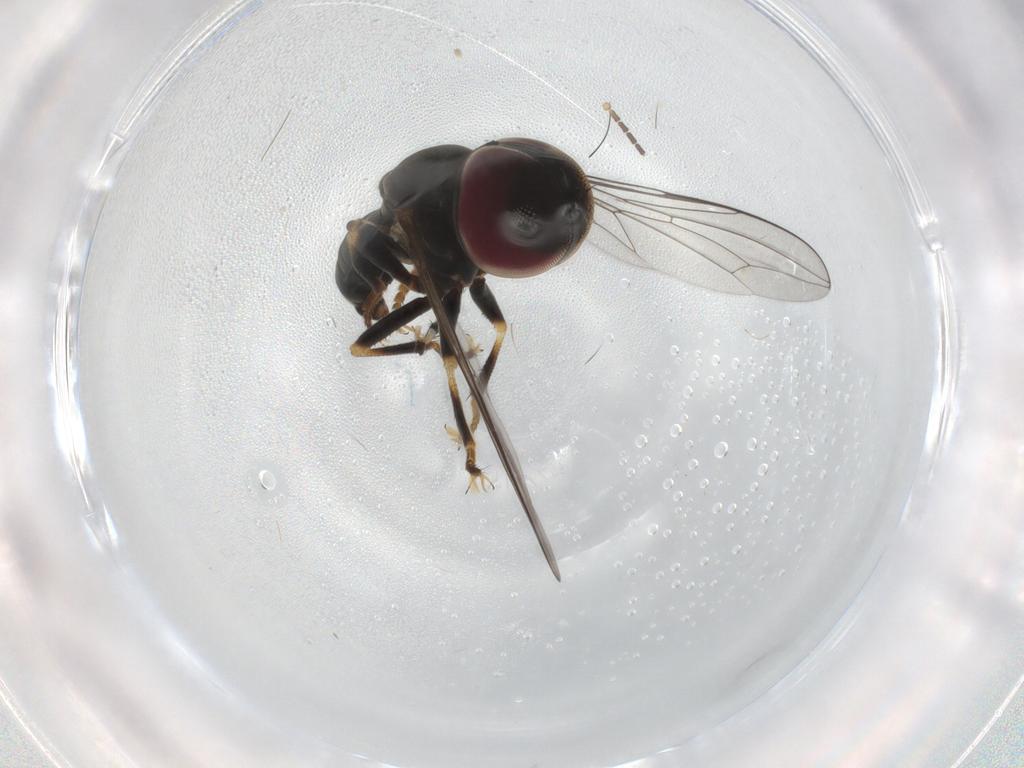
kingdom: Animalia
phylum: Arthropoda
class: Insecta
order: Diptera
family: Pipunculidae
